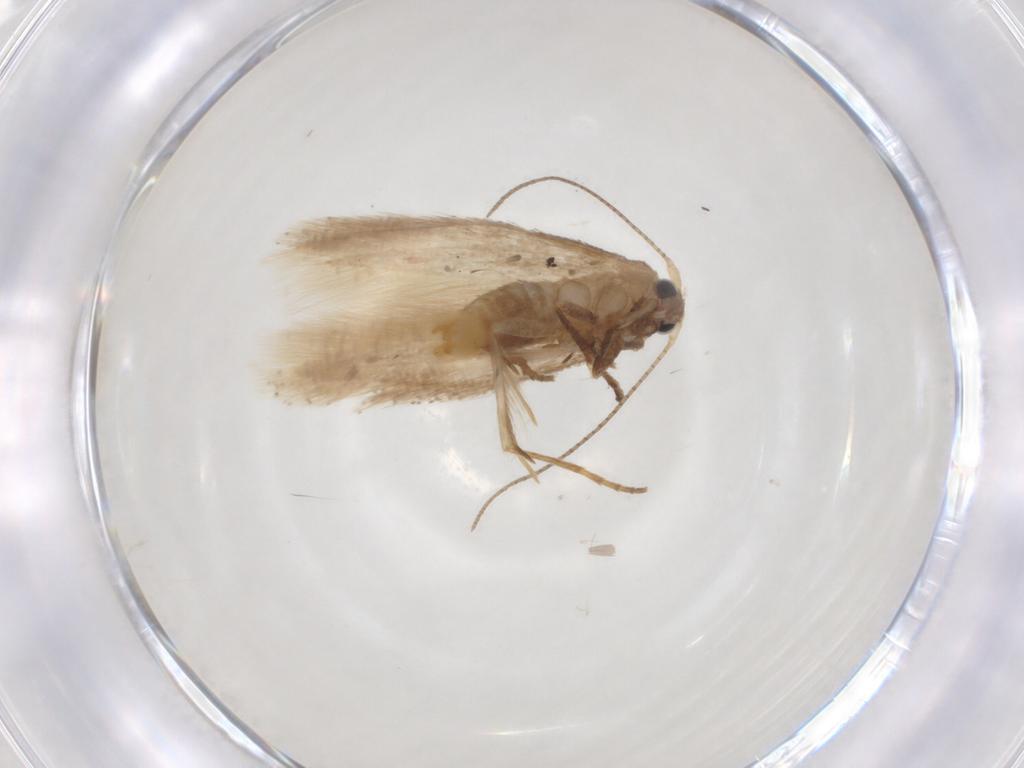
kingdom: Animalia
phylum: Arthropoda
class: Insecta
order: Lepidoptera
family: Bucculatricidae
